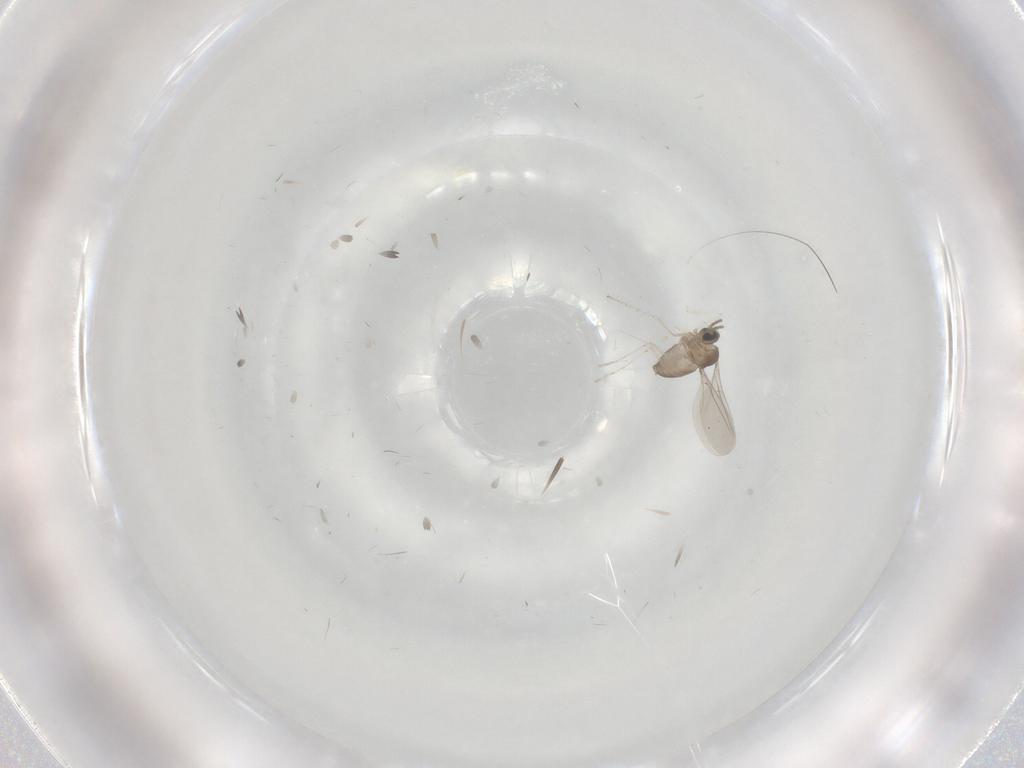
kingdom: Animalia
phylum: Arthropoda
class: Insecta
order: Diptera
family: Cecidomyiidae
